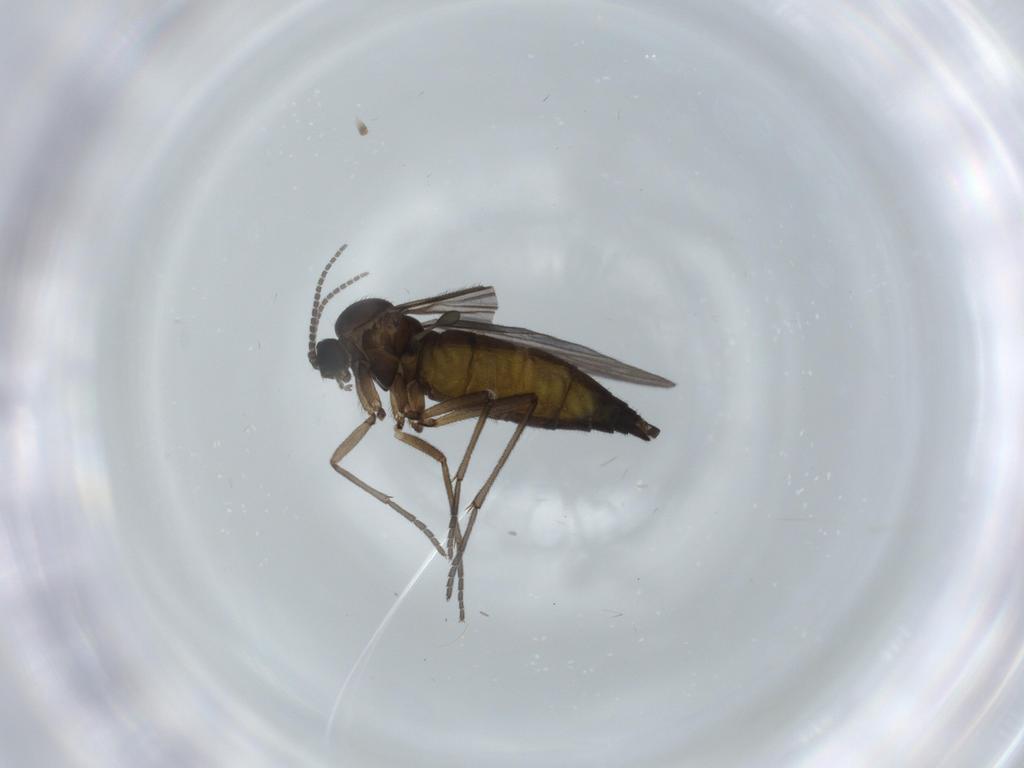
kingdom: Animalia
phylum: Arthropoda
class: Insecta
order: Diptera
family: Sciaridae
